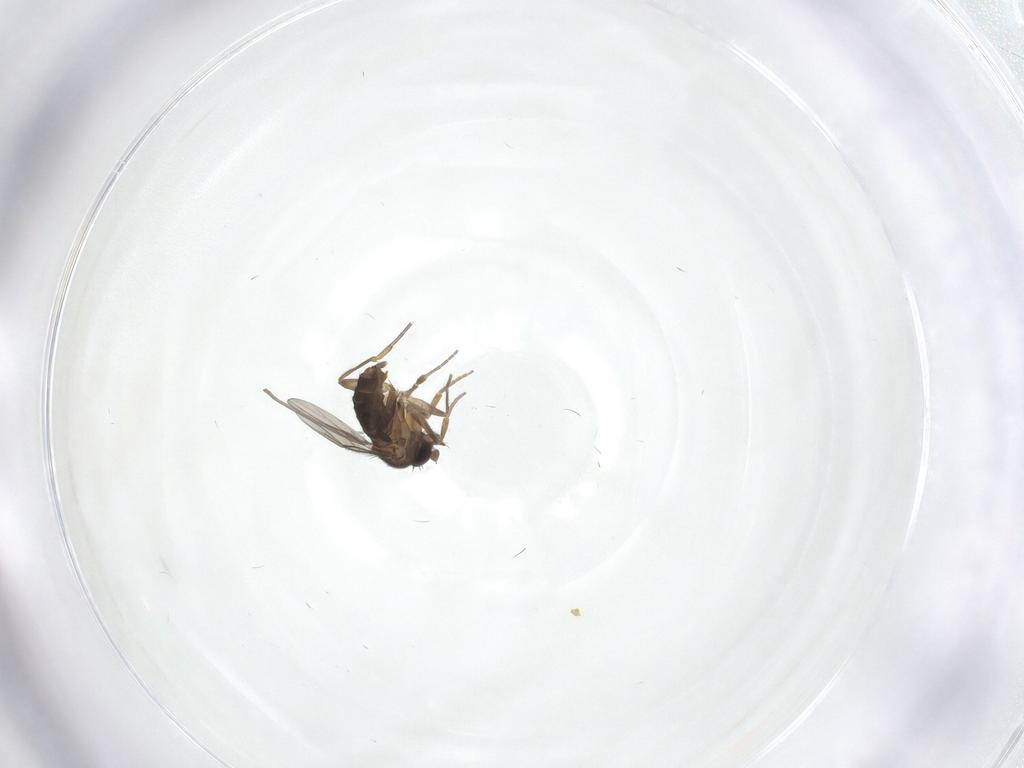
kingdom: Animalia
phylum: Arthropoda
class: Insecta
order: Diptera
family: Phoridae
